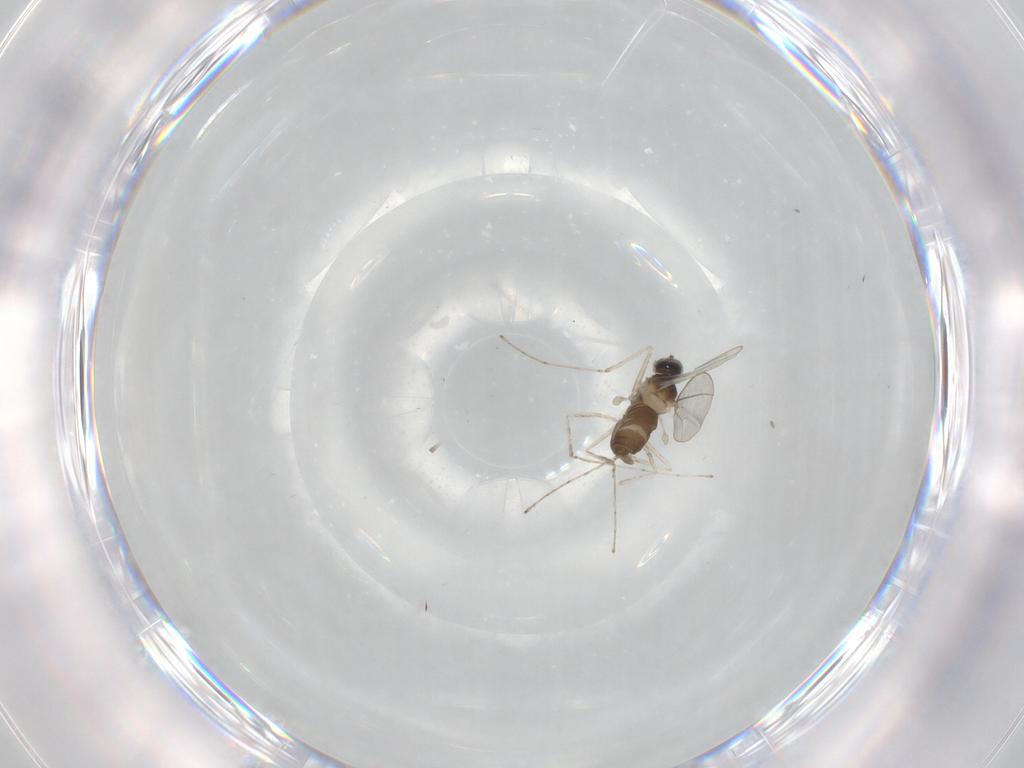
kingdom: Animalia
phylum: Arthropoda
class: Insecta
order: Diptera
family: Cecidomyiidae
